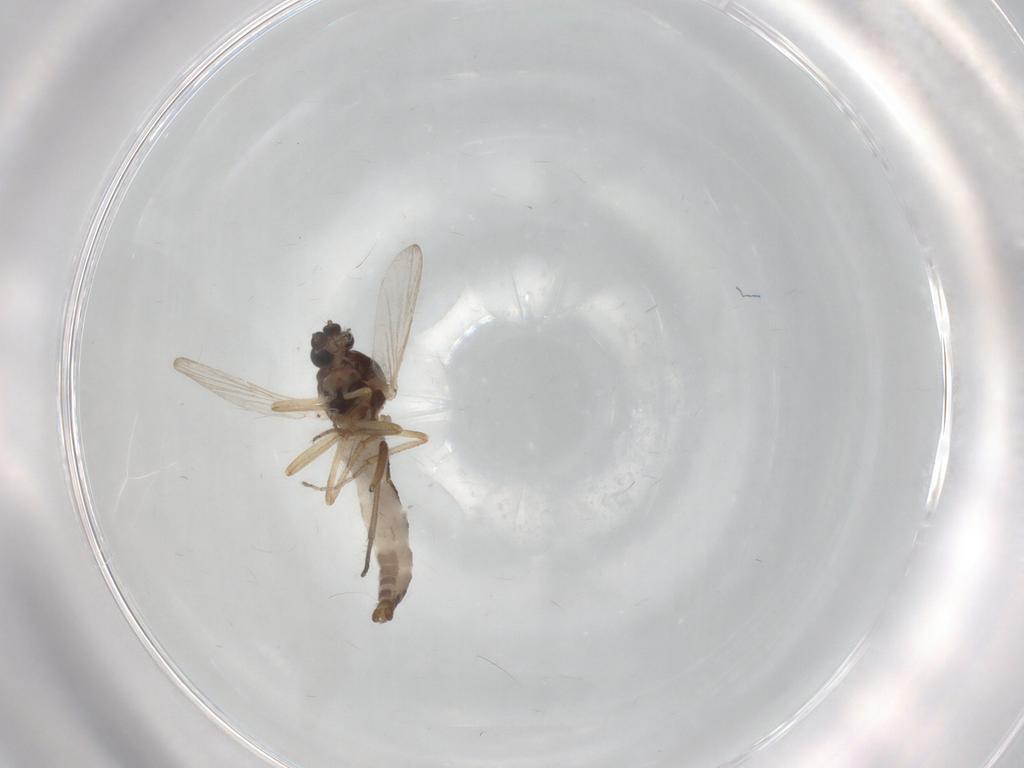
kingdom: Animalia
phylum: Arthropoda
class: Insecta
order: Diptera
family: Sciaridae
